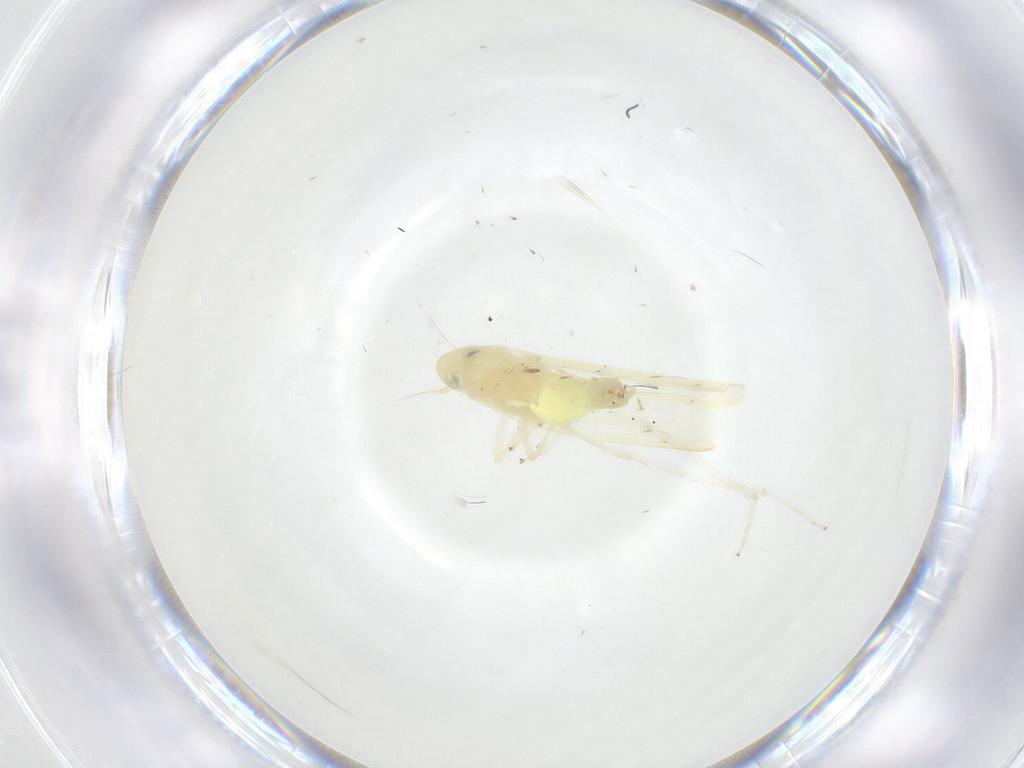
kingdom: Animalia
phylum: Arthropoda
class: Insecta
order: Hemiptera
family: Cicadellidae
